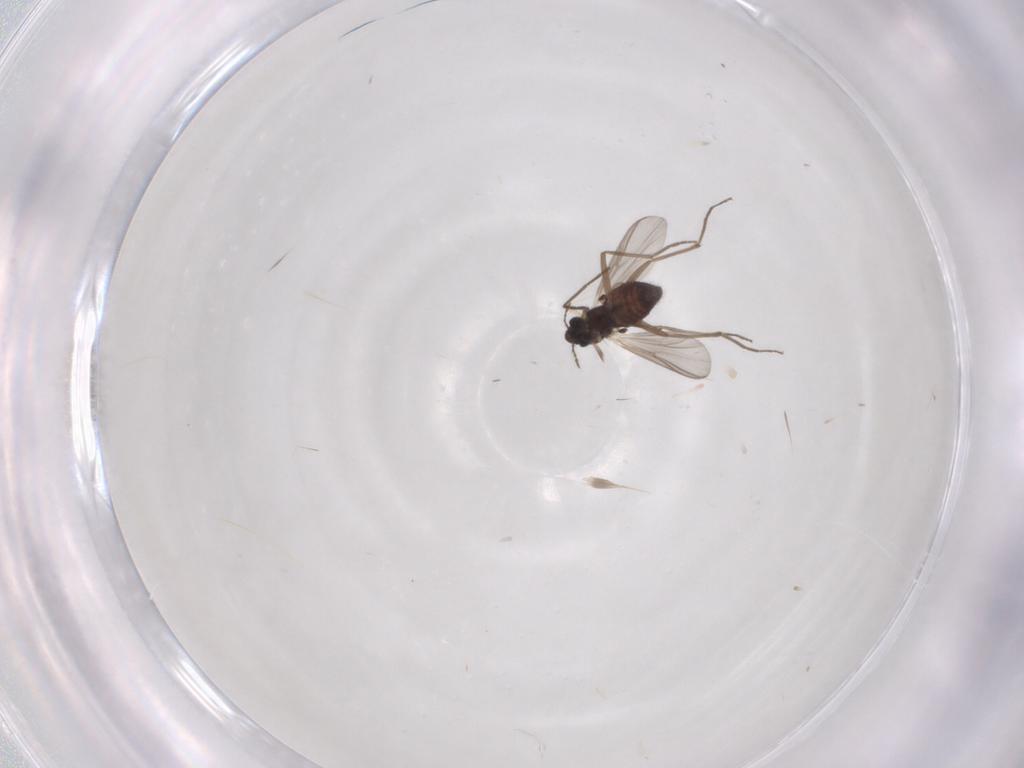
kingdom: Animalia
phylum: Arthropoda
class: Insecta
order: Diptera
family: Chironomidae
